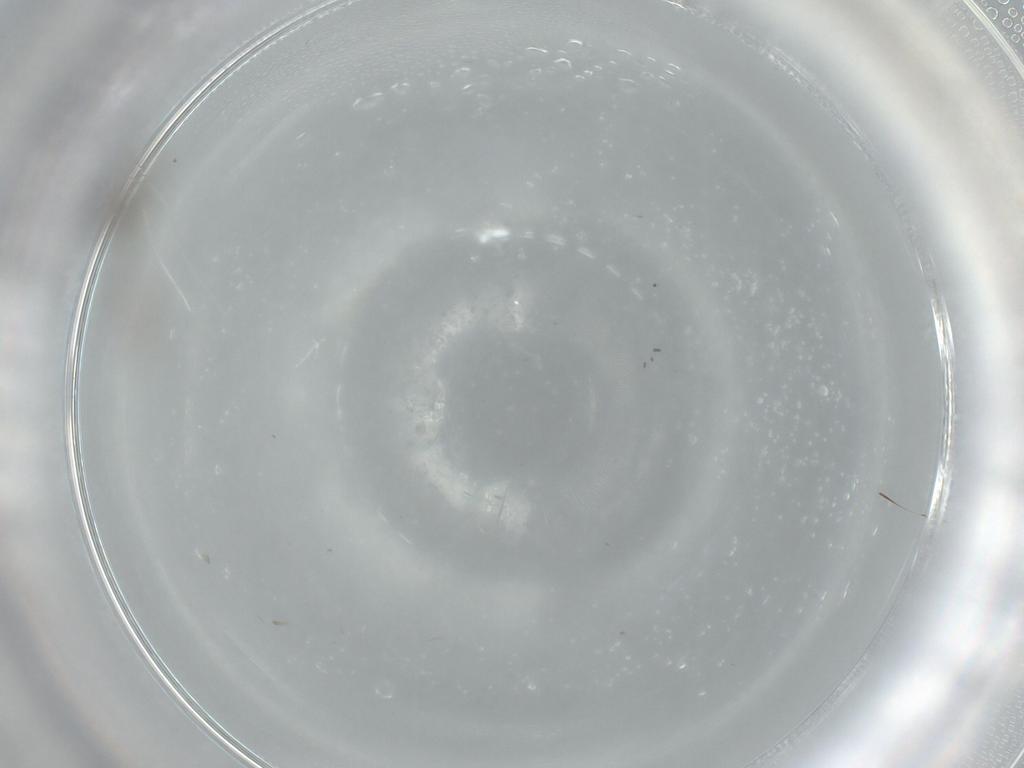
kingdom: Animalia
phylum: Arthropoda
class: Insecta
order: Diptera
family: Cecidomyiidae
